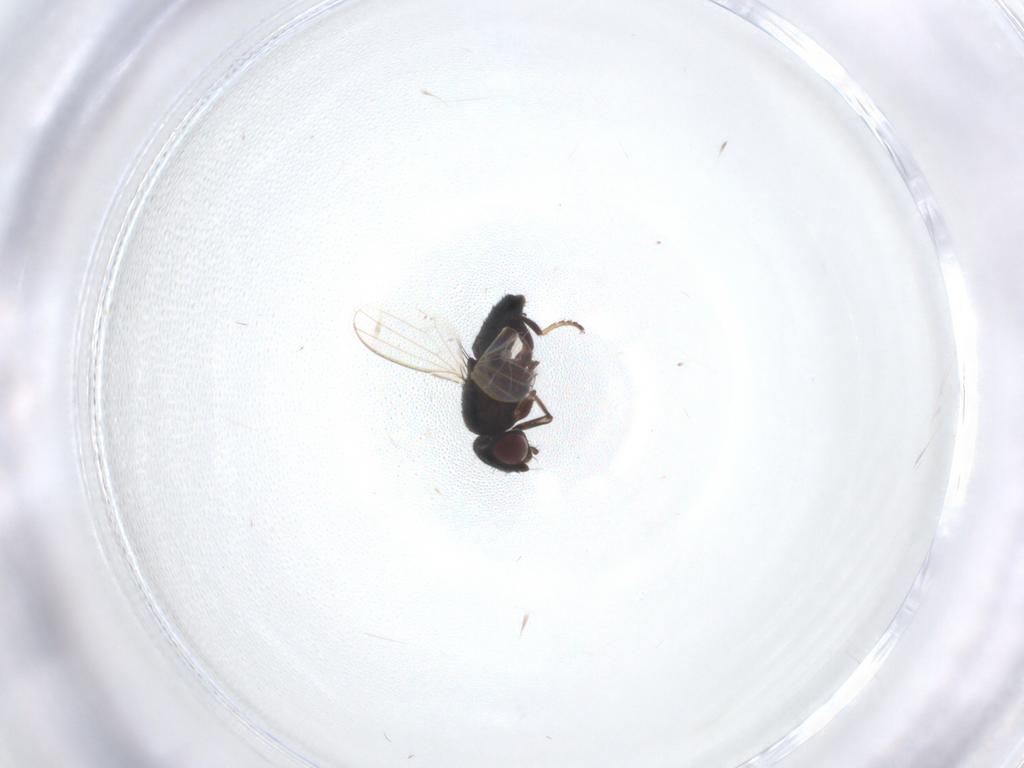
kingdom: Animalia
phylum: Arthropoda
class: Insecta
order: Diptera
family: Milichiidae
